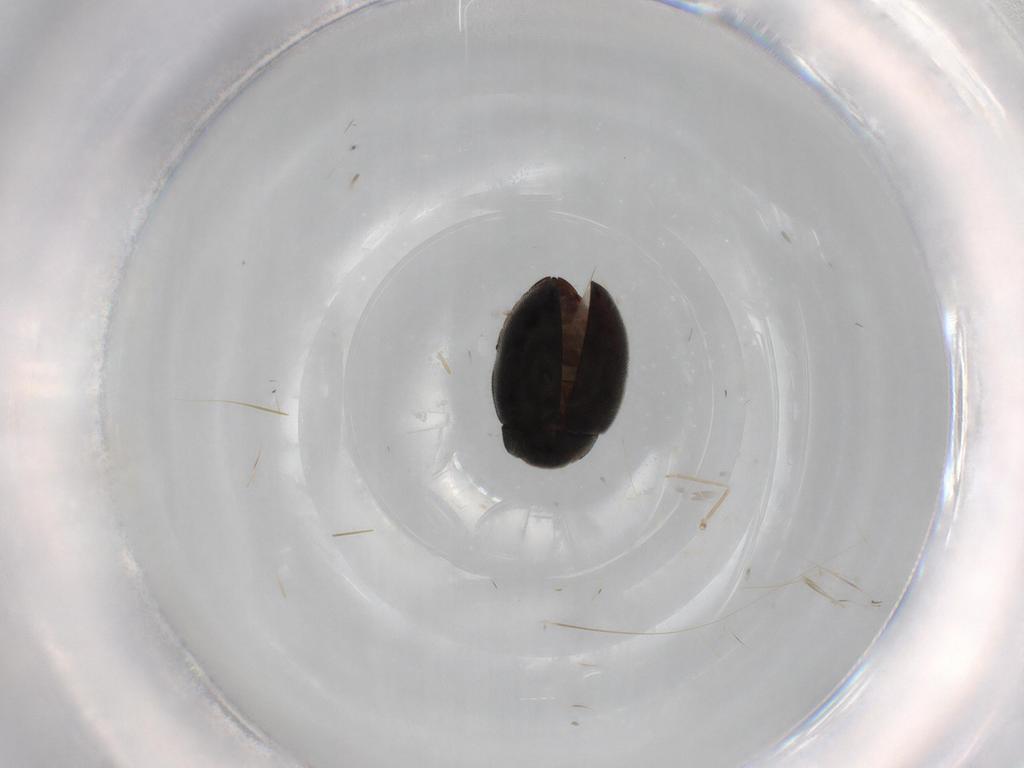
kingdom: Animalia
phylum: Arthropoda
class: Insecta
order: Coleoptera
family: Limnichidae
